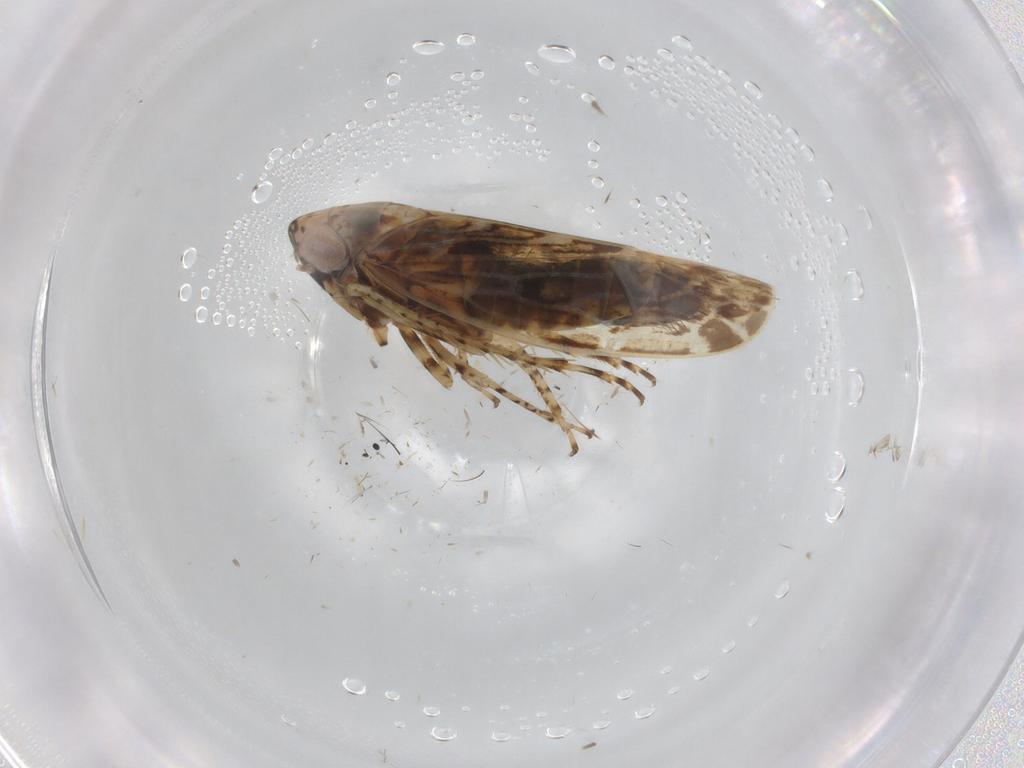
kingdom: Animalia
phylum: Arthropoda
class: Insecta
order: Hemiptera
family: Cicadellidae
